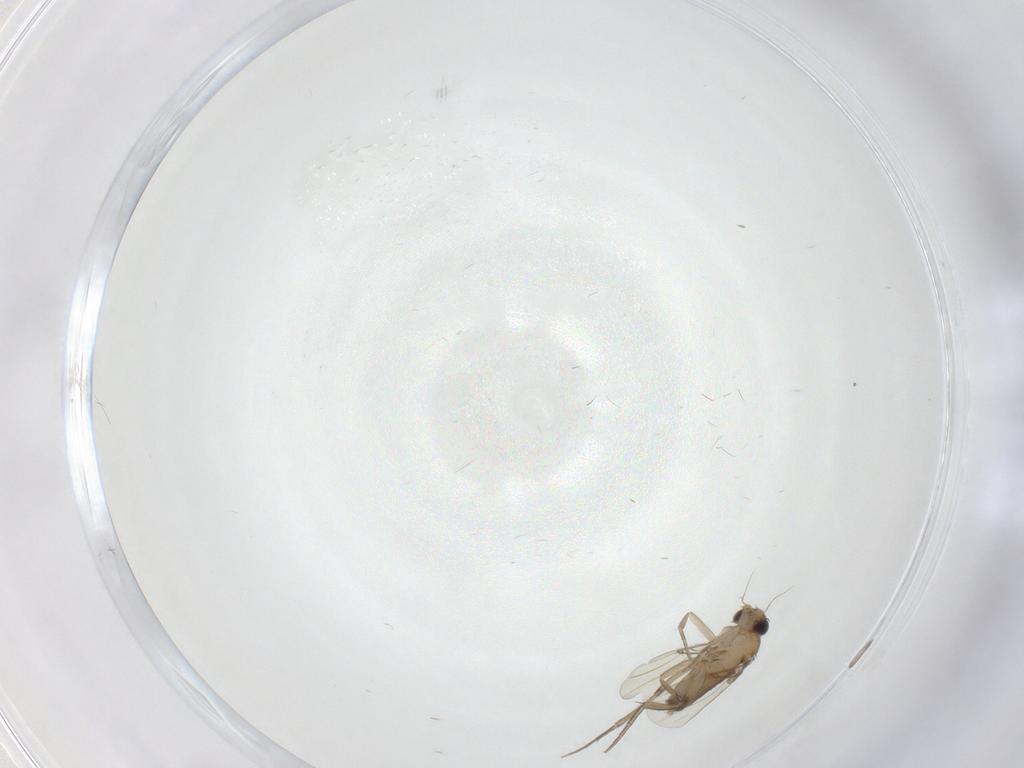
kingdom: Animalia
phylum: Arthropoda
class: Insecta
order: Diptera
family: Phoridae
